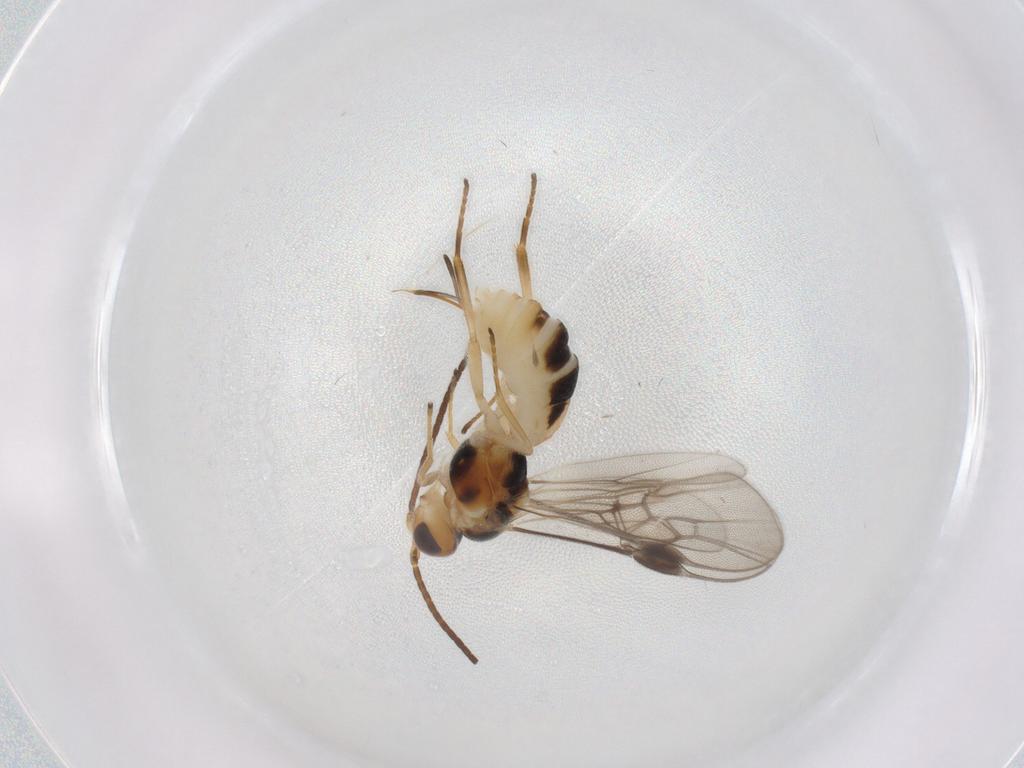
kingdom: Animalia
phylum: Arthropoda
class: Insecta
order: Hymenoptera
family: Braconidae
